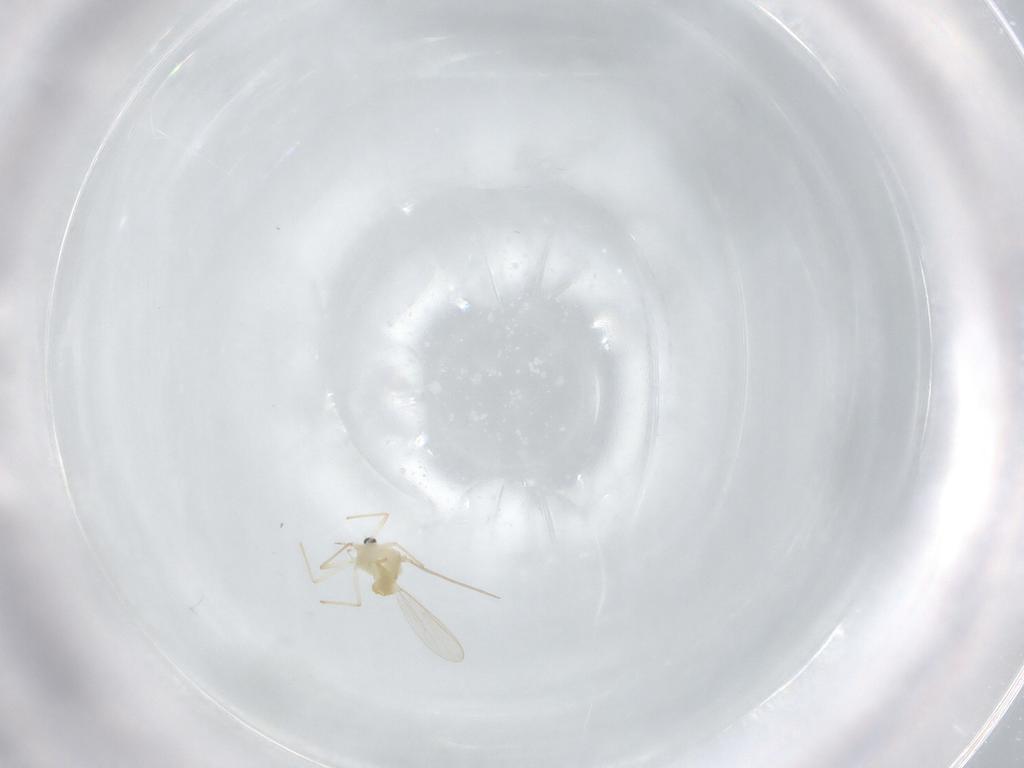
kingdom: Animalia
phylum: Arthropoda
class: Insecta
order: Diptera
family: Chironomidae
